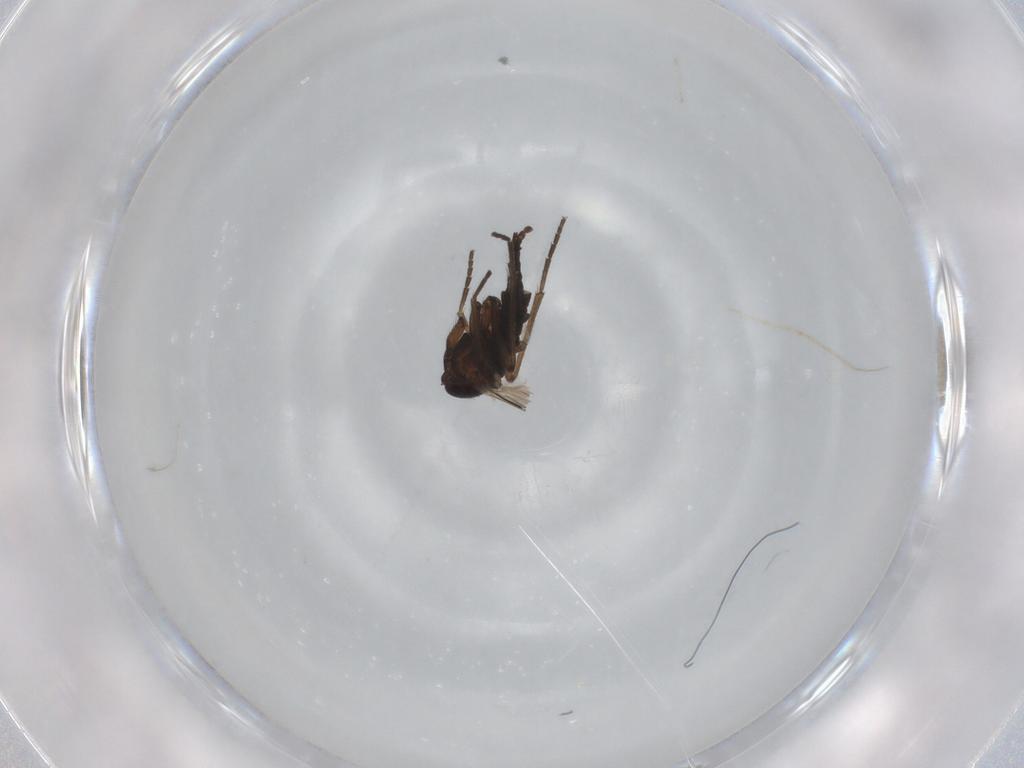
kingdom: Animalia
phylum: Arthropoda
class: Insecta
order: Diptera
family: Sciaridae
